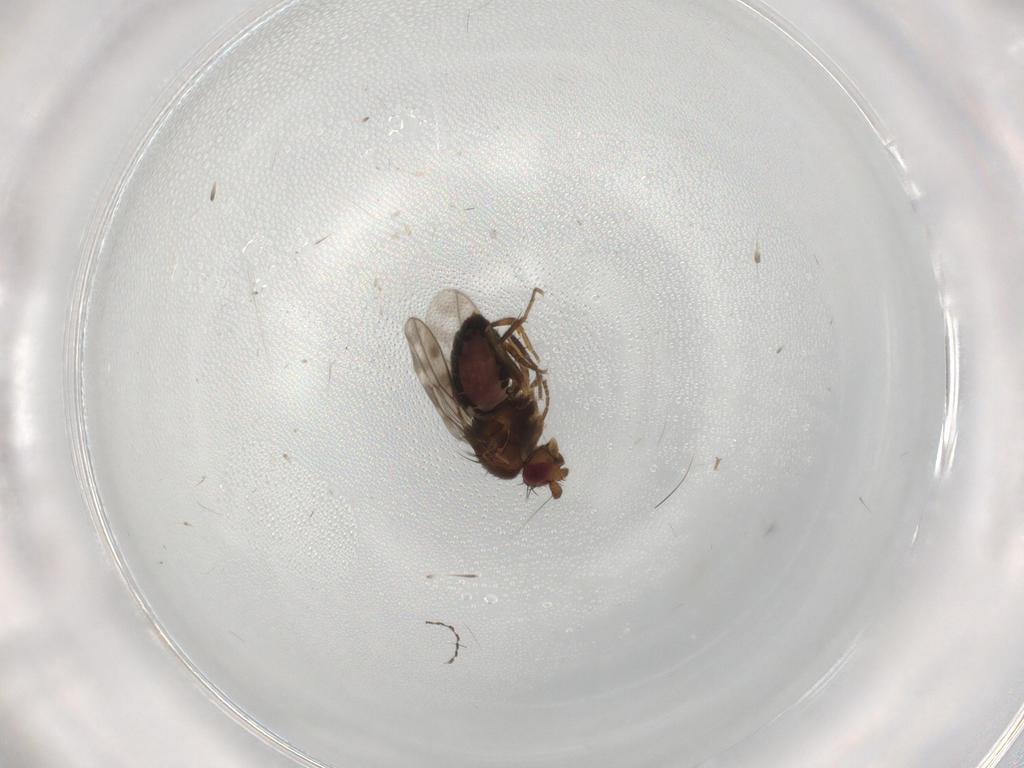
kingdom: Animalia
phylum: Arthropoda
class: Insecta
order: Diptera
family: Sphaeroceridae
